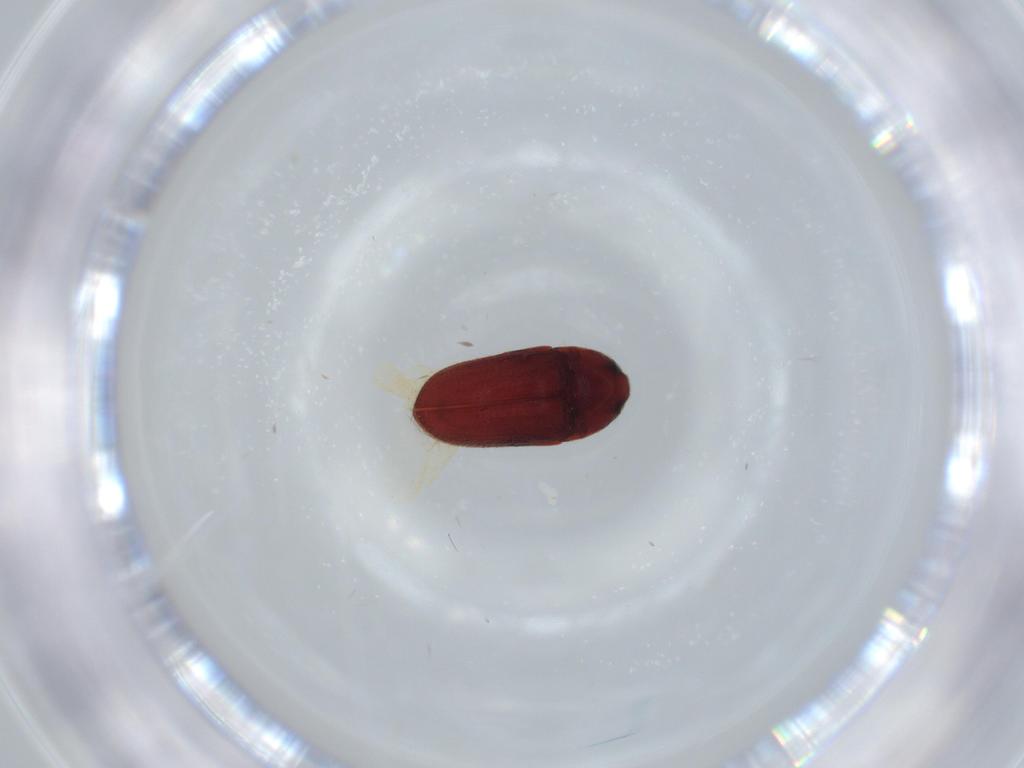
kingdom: Animalia
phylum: Arthropoda
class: Insecta
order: Coleoptera
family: Throscidae
